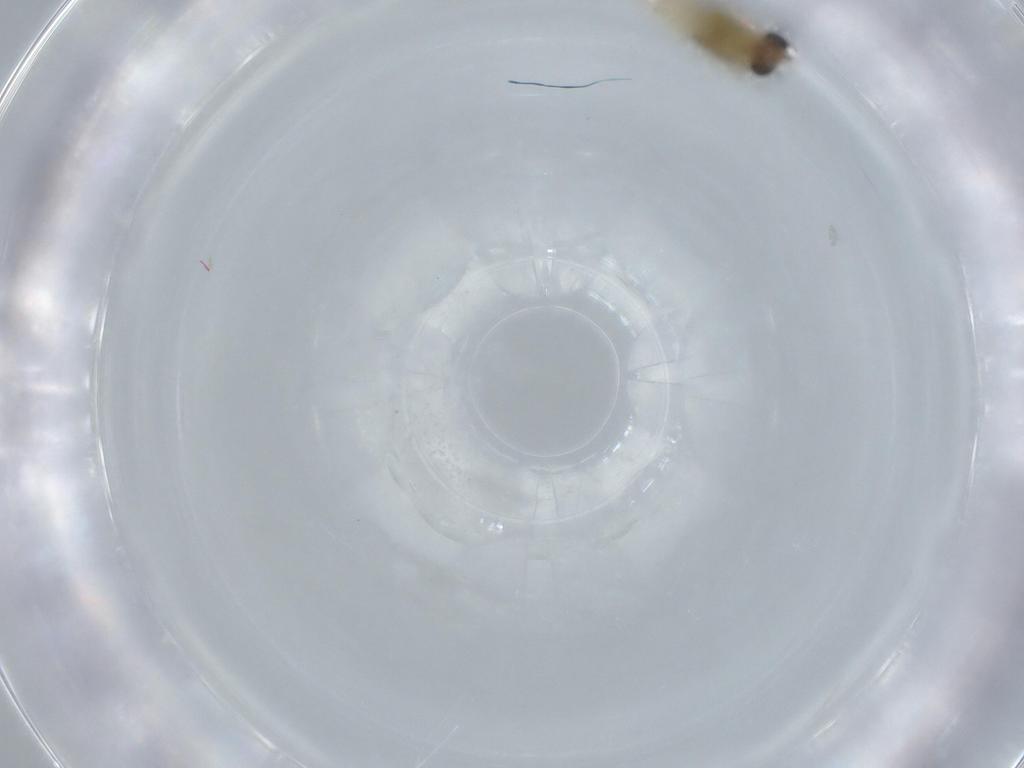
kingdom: Animalia
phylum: Arthropoda
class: Insecta
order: Diptera
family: Chironomidae
